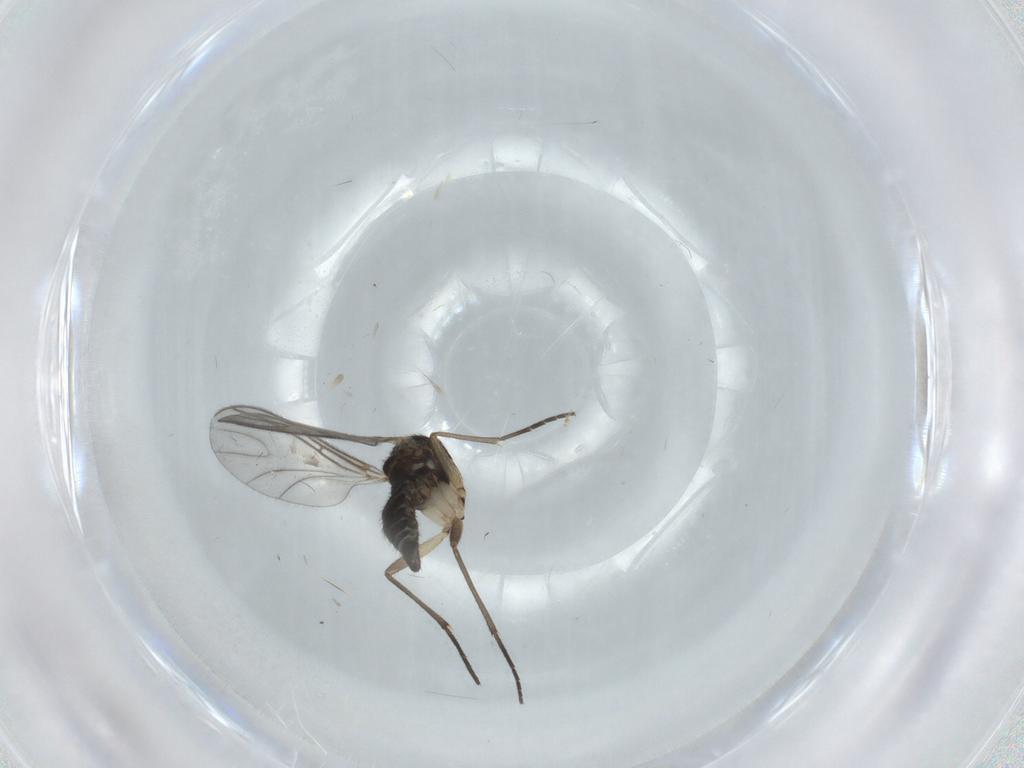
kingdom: Animalia
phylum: Arthropoda
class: Insecta
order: Diptera
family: Sciaridae
